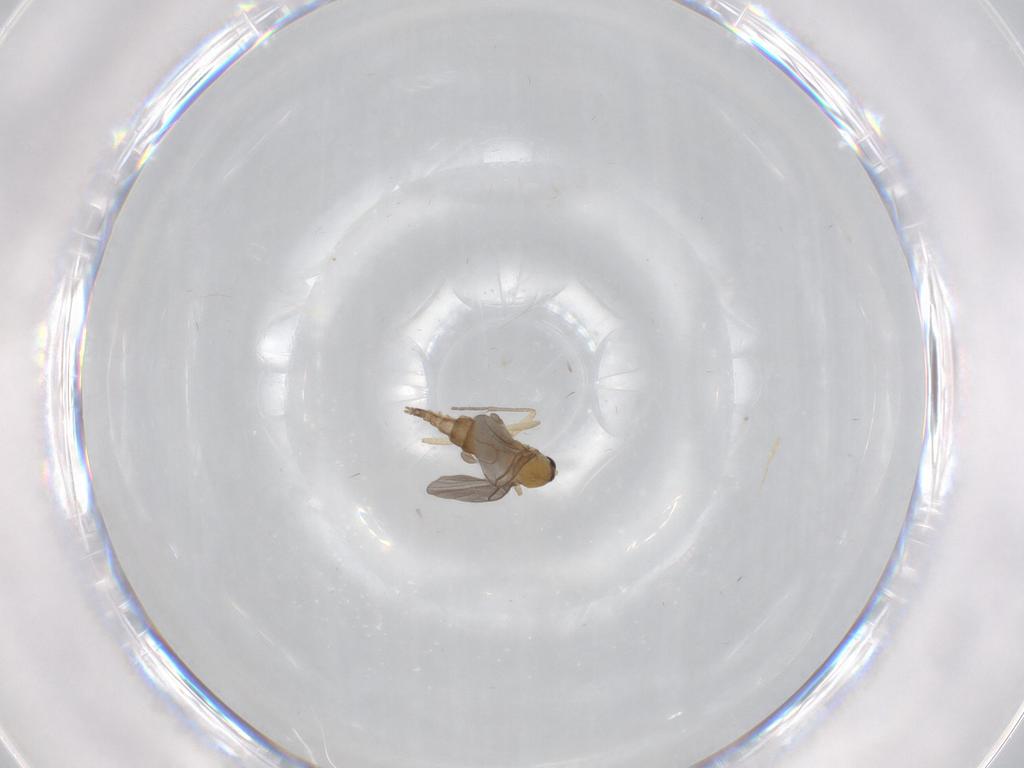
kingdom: Animalia
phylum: Arthropoda
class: Insecta
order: Diptera
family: Sciaridae
